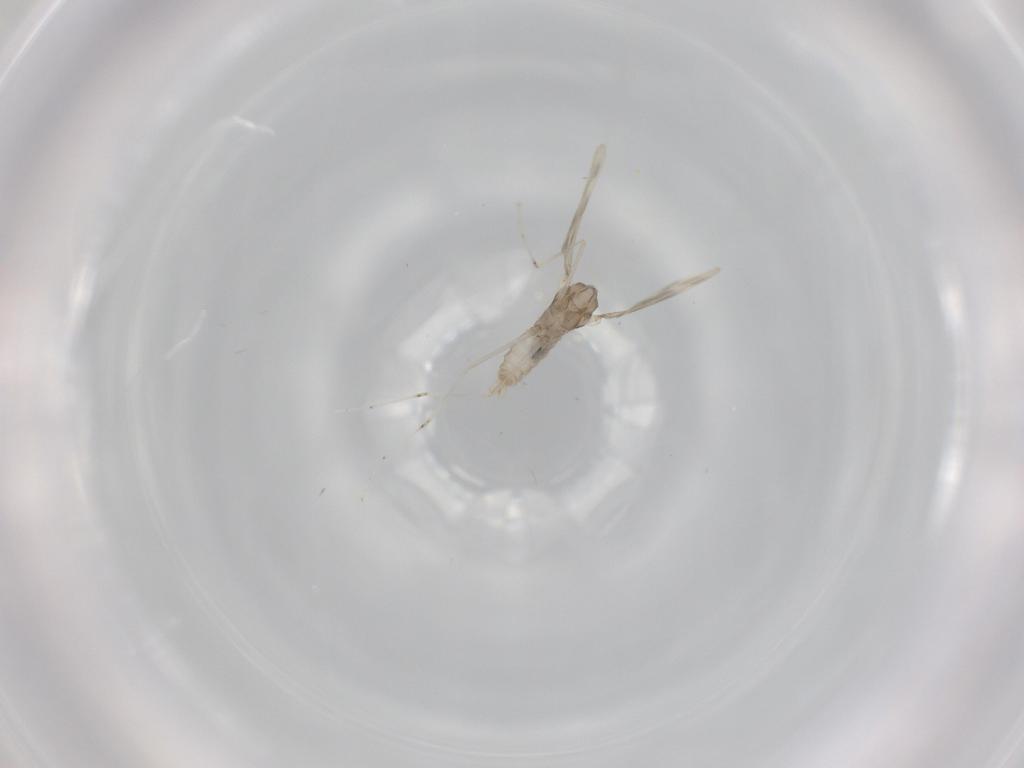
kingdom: Animalia
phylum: Arthropoda
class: Insecta
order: Diptera
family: Cecidomyiidae
